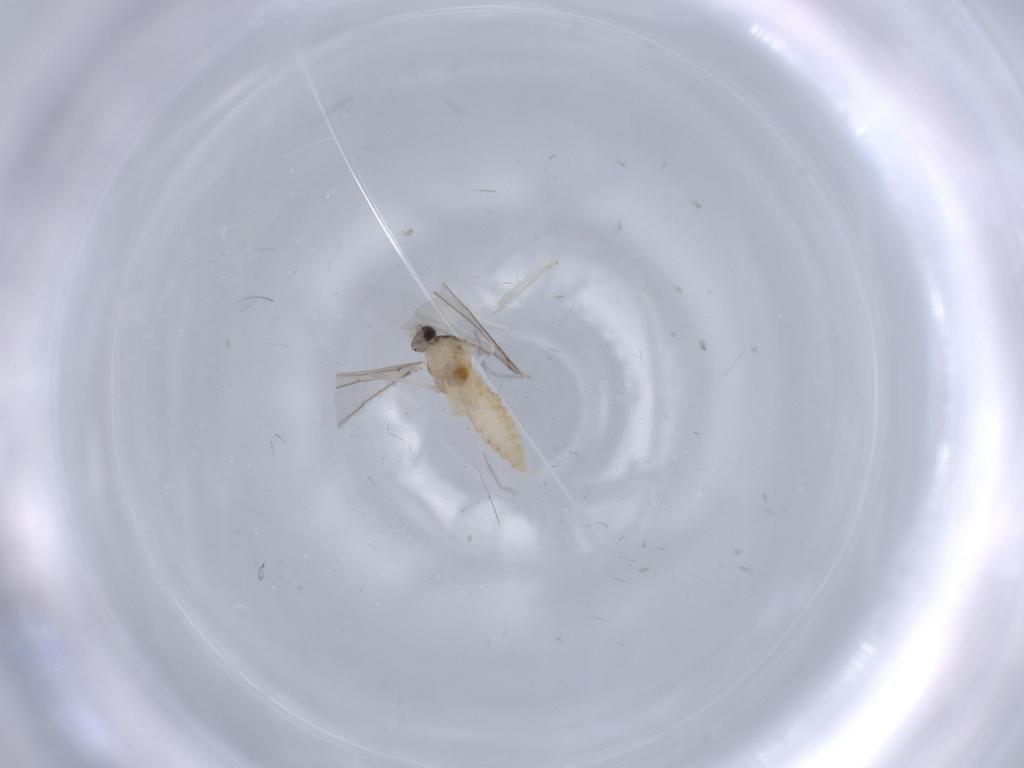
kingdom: Animalia
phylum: Arthropoda
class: Insecta
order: Diptera
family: Cecidomyiidae
